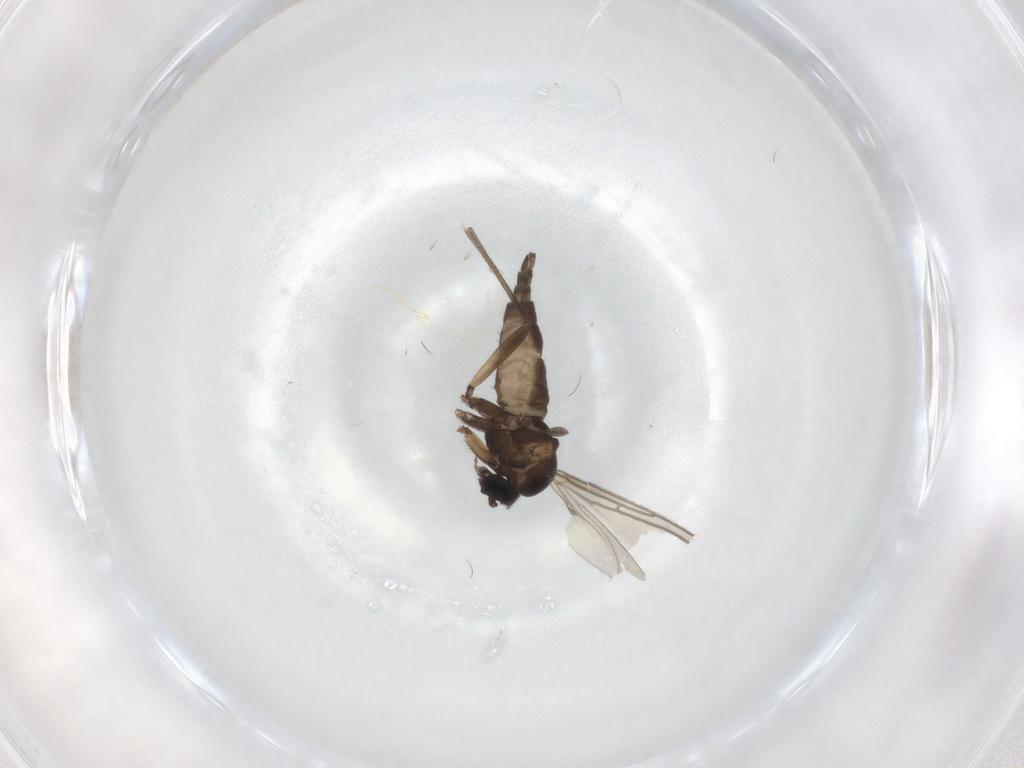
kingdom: Animalia
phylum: Arthropoda
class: Insecta
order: Diptera
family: Sciaridae
